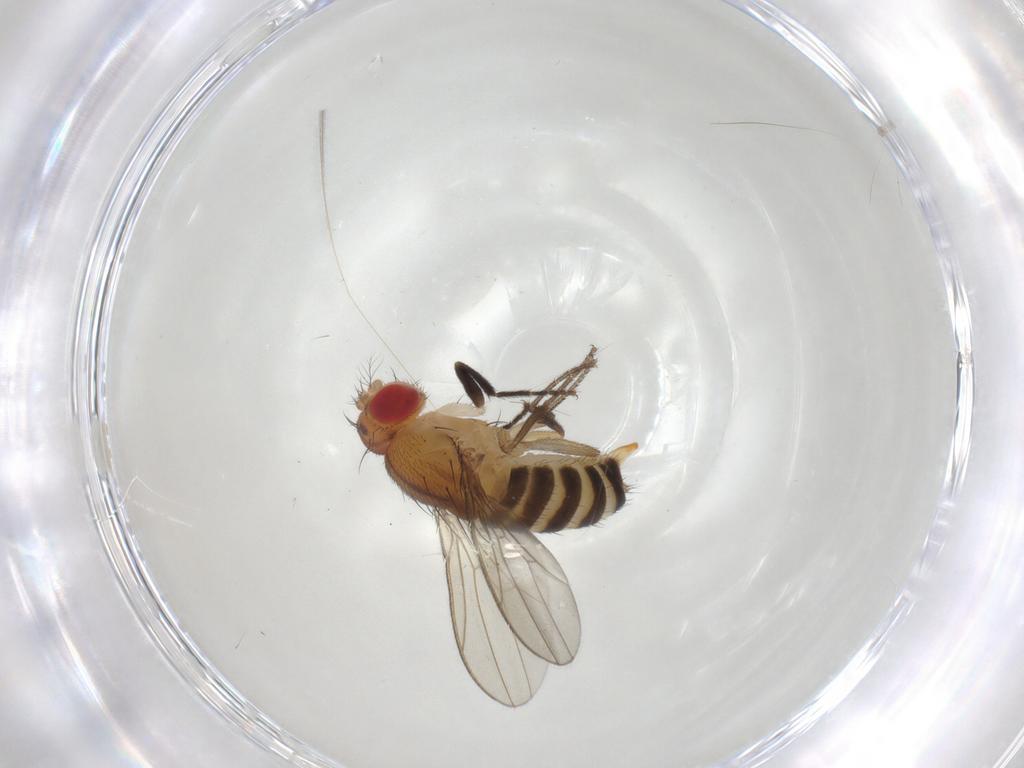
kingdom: Animalia
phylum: Arthropoda
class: Insecta
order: Diptera
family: Drosophilidae
